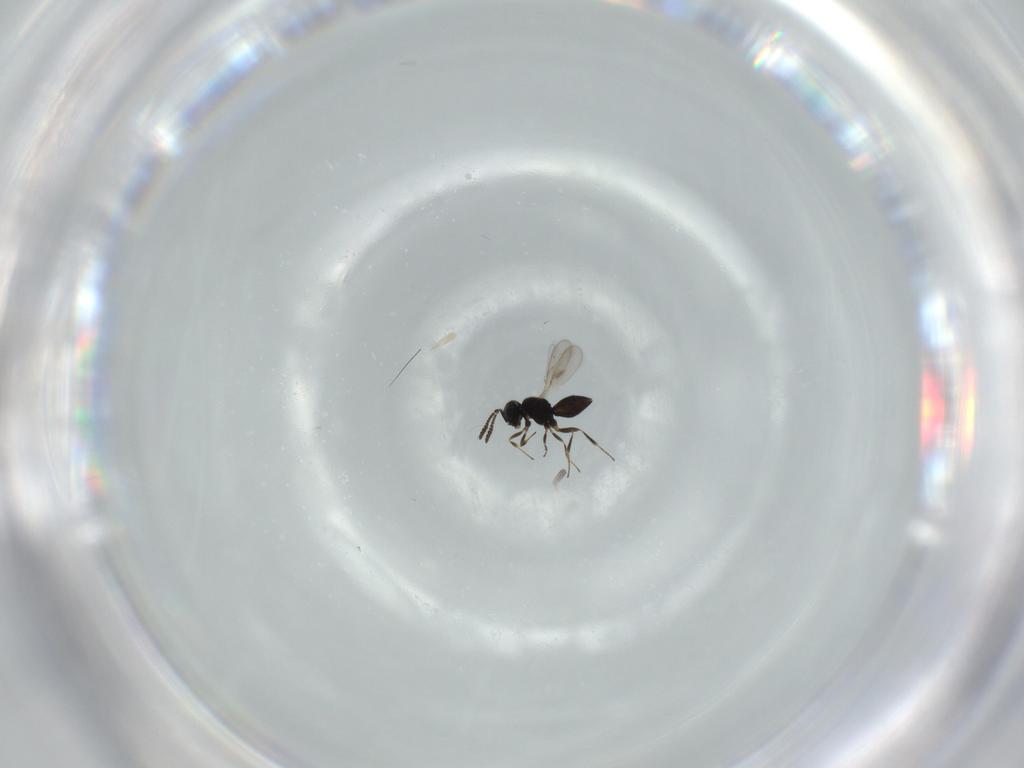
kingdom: Animalia
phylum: Arthropoda
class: Insecta
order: Hymenoptera
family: Scelionidae
